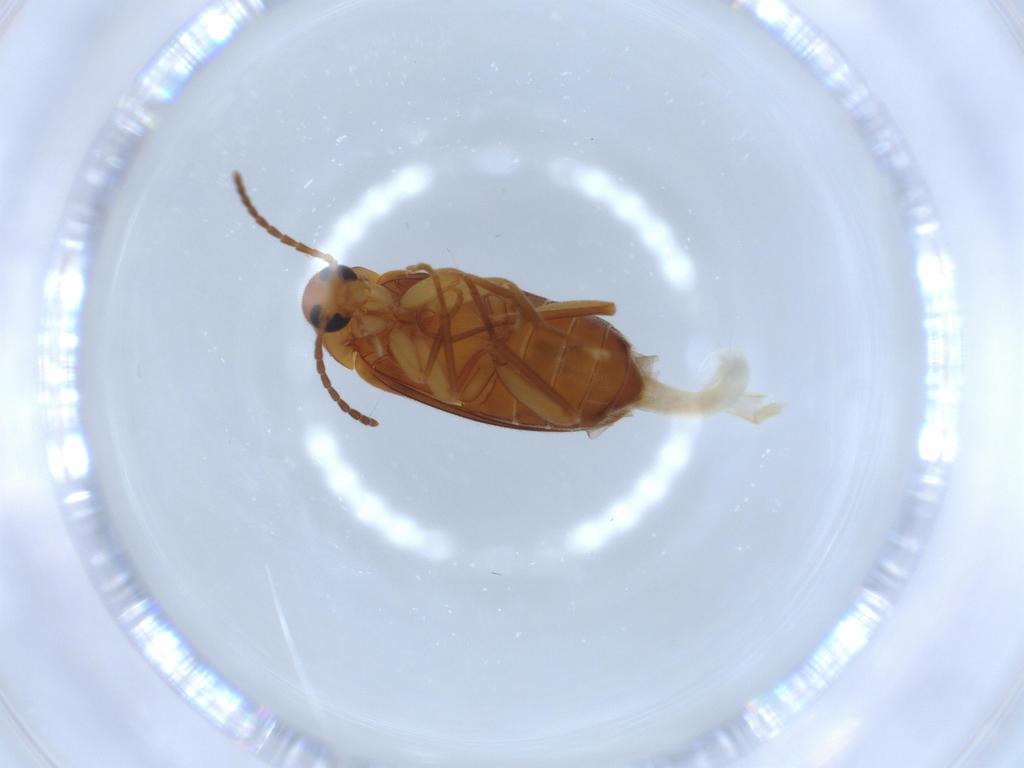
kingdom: Animalia
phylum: Arthropoda
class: Insecta
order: Coleoptera
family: Scraptiidae
